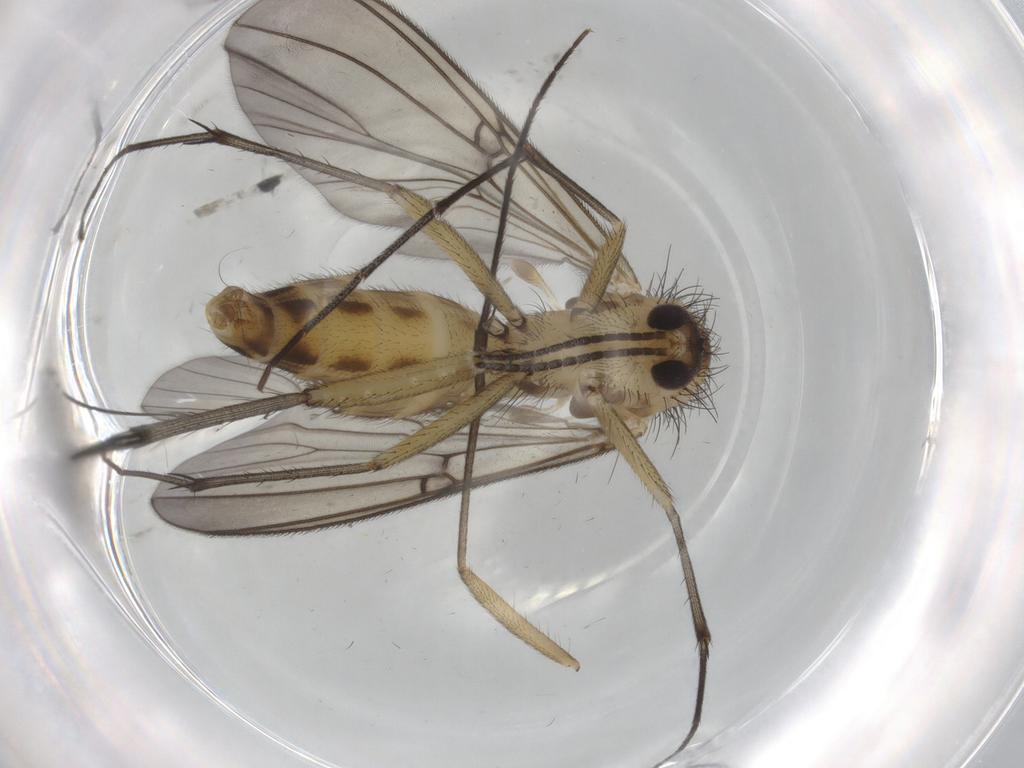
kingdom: Animalia
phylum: Arthropoda
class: Insecta
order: Diptera
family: Mycetophilidae
